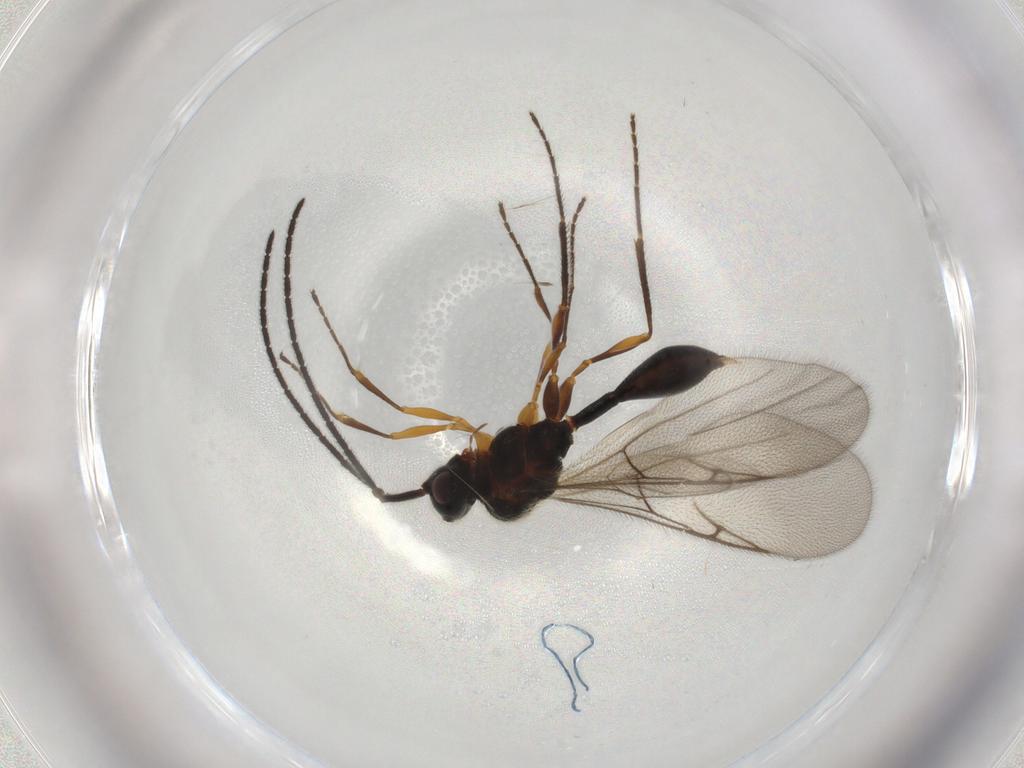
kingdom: Animalia
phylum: Arthropoda
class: Insecta
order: Hymenoptera
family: Diapriidae
